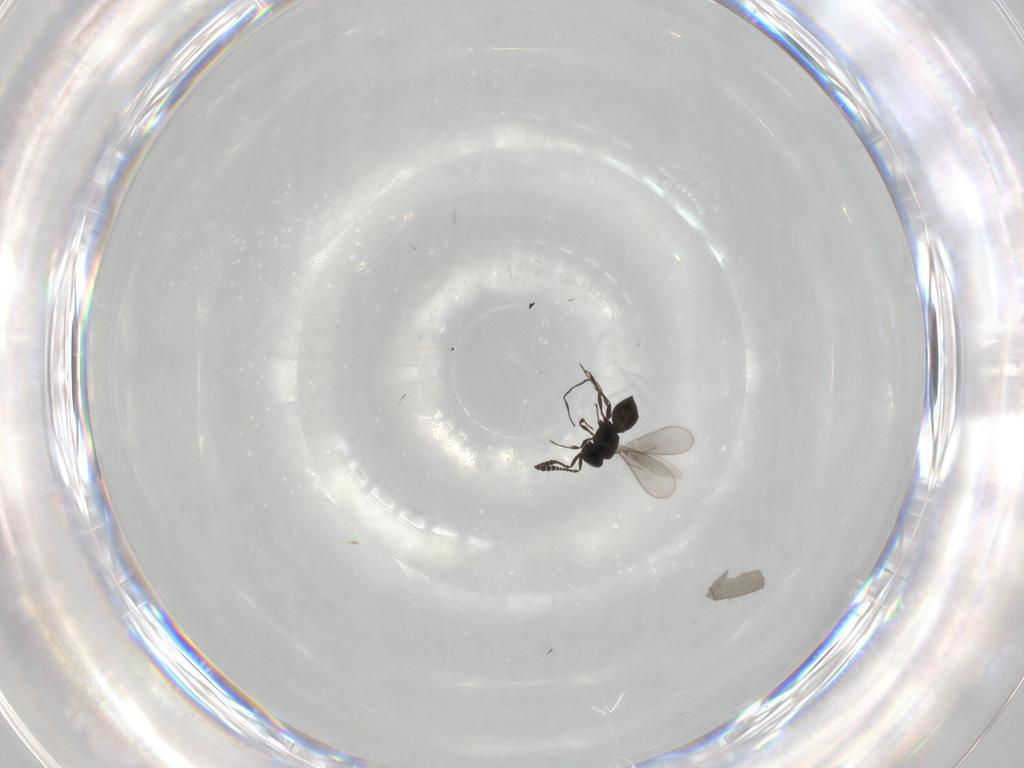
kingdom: Animalia
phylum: Arthropoda
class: Insecta
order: Hymenoptera
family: Scelionidae
